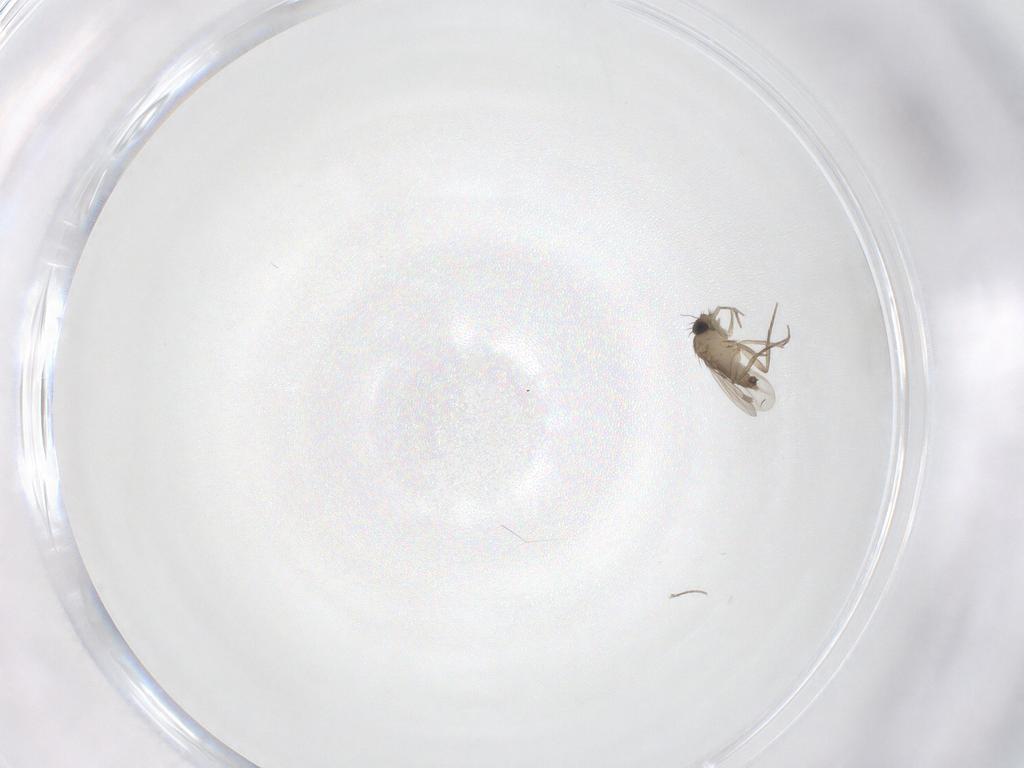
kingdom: Animalia
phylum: Arthropoda
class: Insecta
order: Diptera
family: Phoridae
